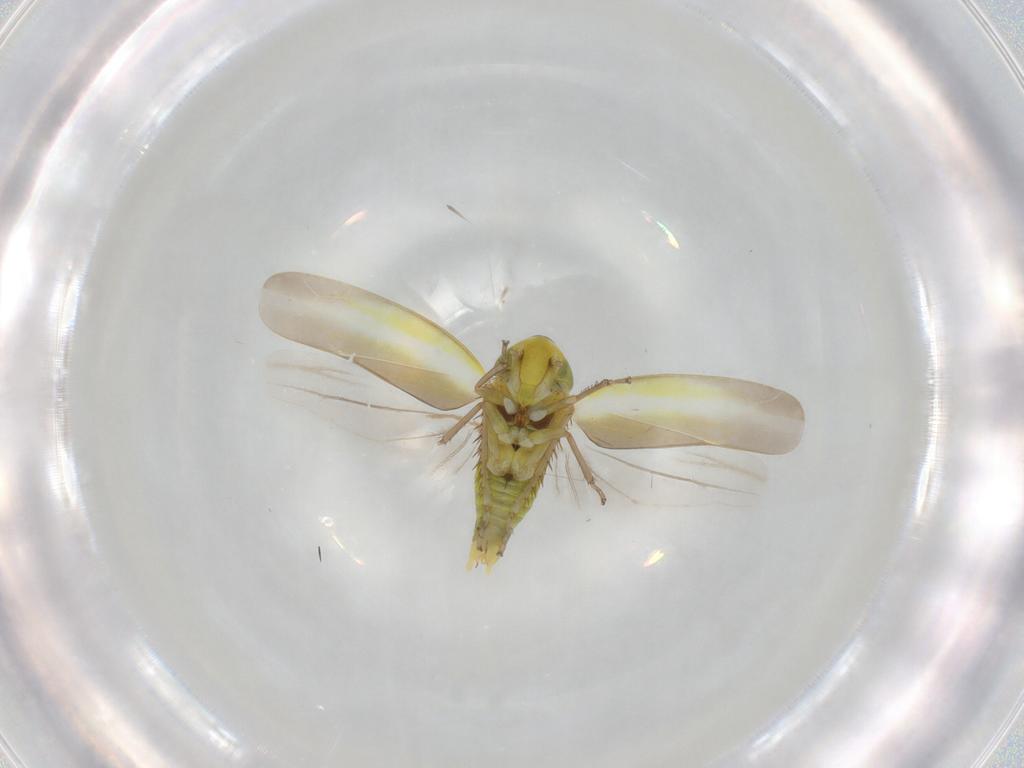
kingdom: Animalia
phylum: Arthropoda
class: Insecta
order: Hemiptera
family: Cicadellidae
